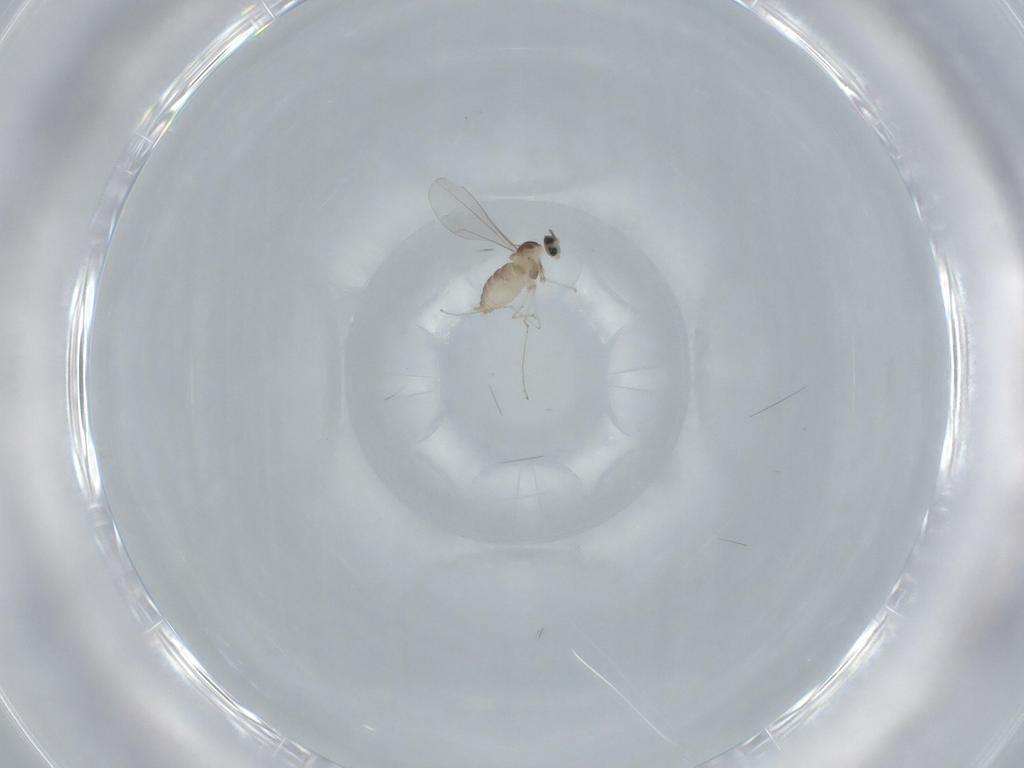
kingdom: Animalia
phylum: Arthropoda
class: Insecta
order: Diptera
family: Cecidomyiidae
